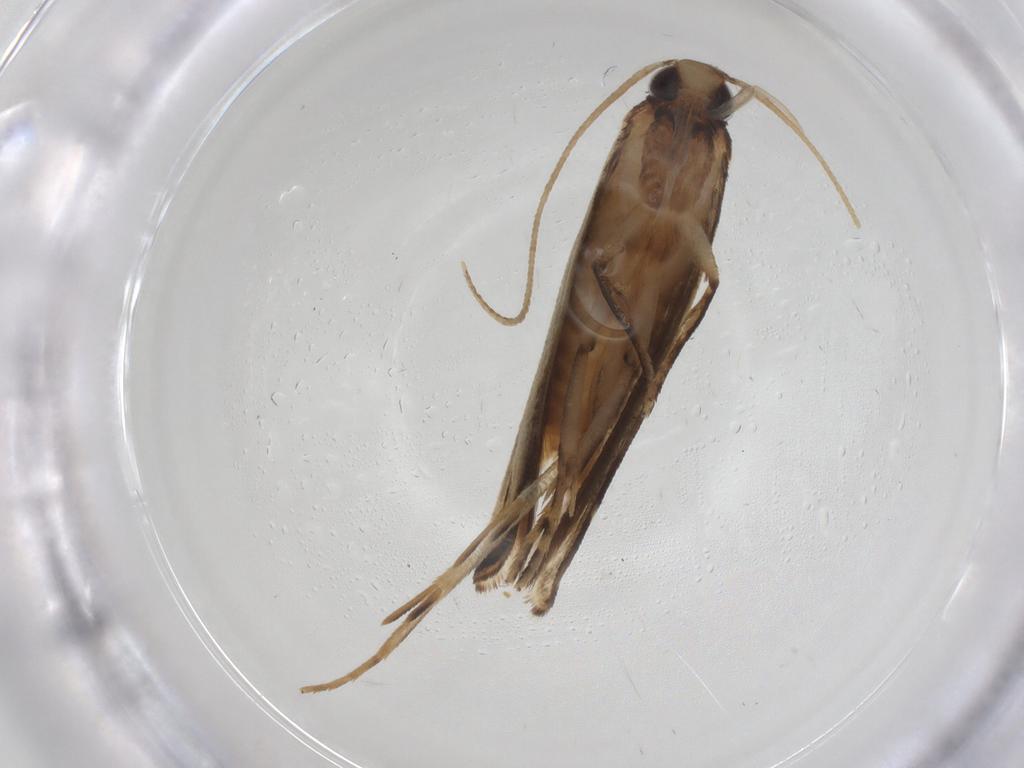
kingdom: Animalia
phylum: Arthropoda
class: Insecta
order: Lepidoptera
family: Gelechiidae
